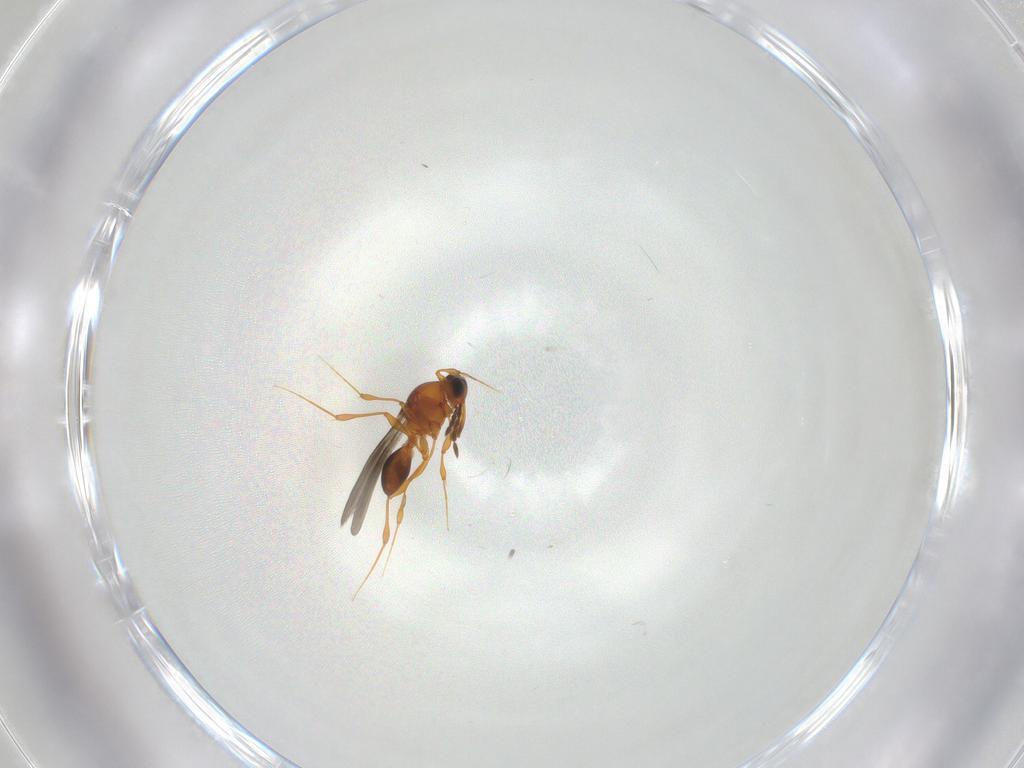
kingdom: Animalia
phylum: Arthropoda
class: Insecta
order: Hymenoptera
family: Platygastridae
